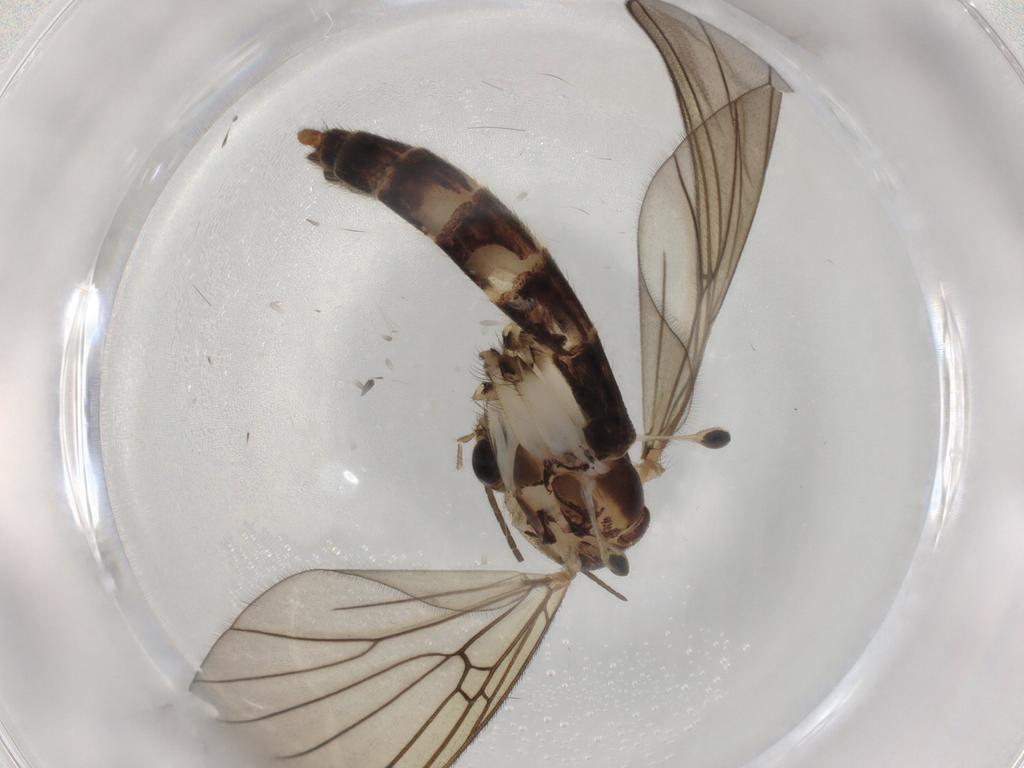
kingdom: Animalia
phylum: Arthropoda
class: Insecta
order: Diptera
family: Mycetophilidae
